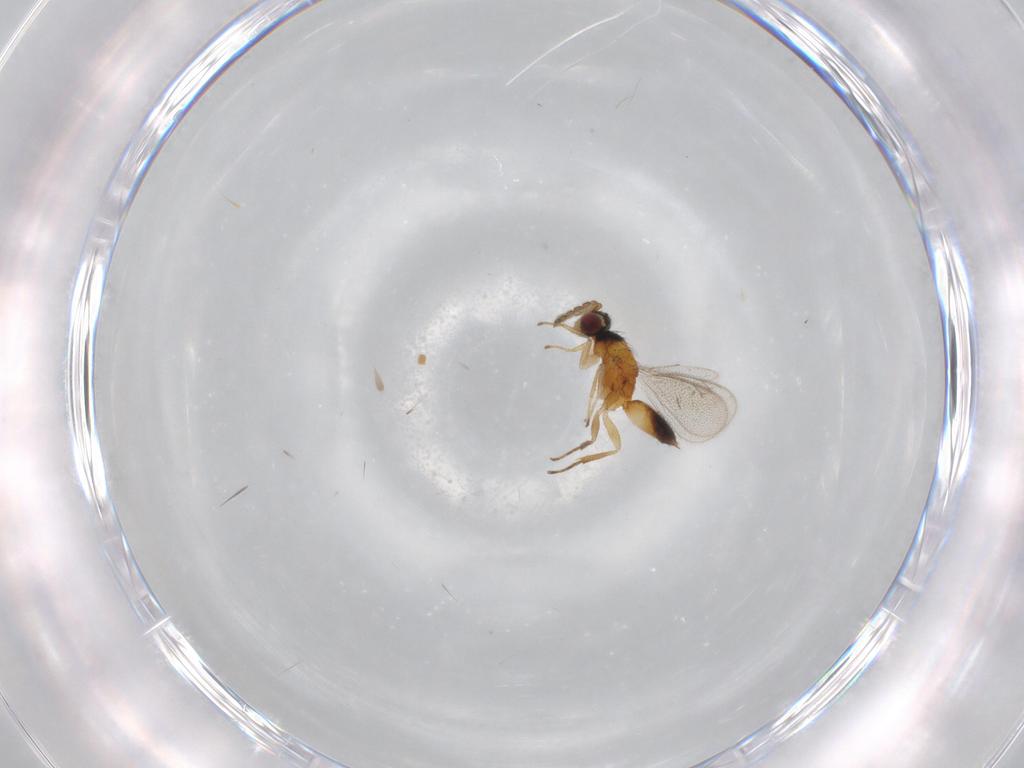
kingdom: Animalia
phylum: Arthropoda
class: Insecta
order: Hymenoptera
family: Eulophidae
